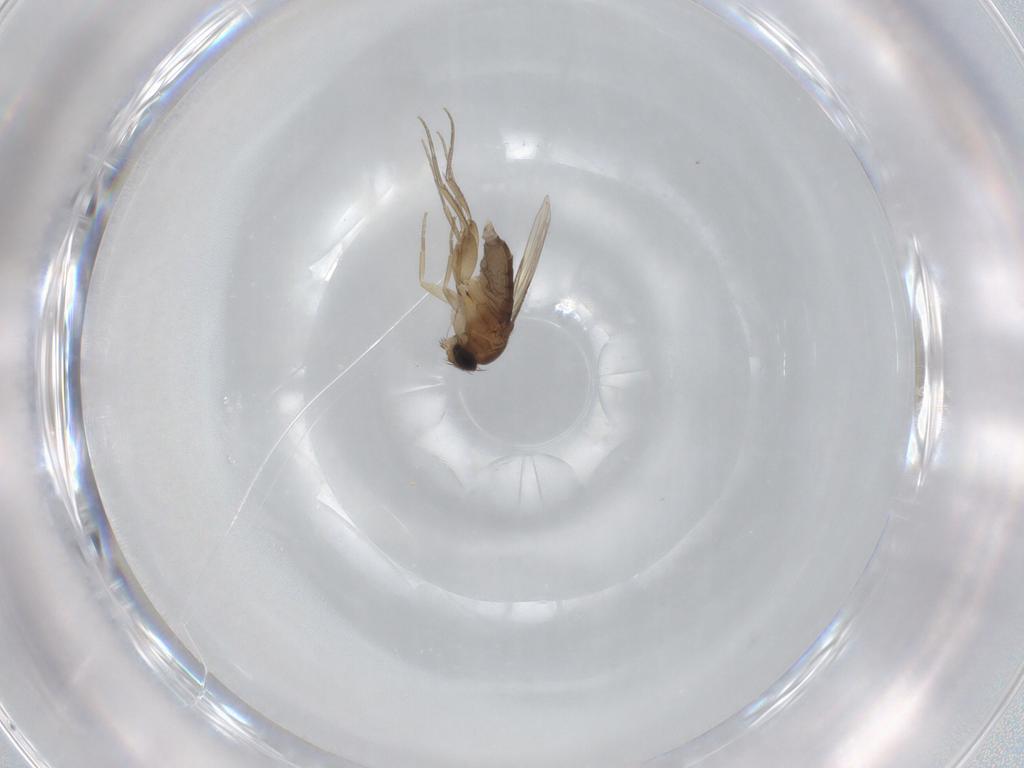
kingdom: Animalia
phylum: Arthropoda
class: Insecta
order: Diptera
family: Phoridae
